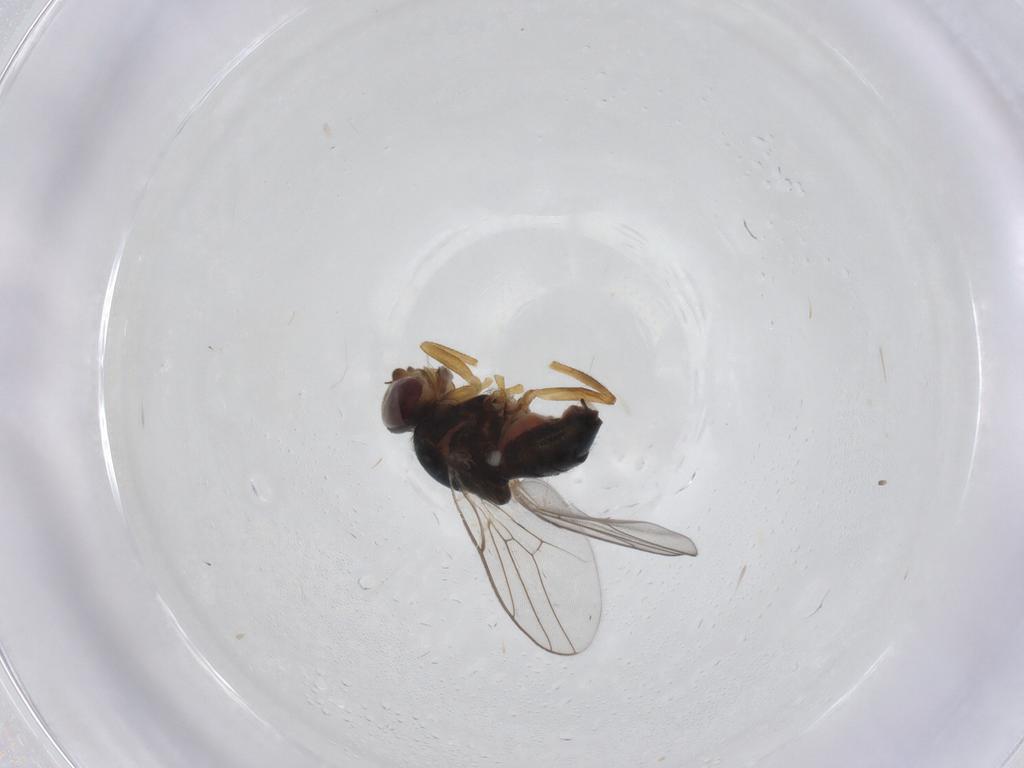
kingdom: Animalia
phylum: Arthropoda
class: Insecta
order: Diptera
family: Chloropidae
